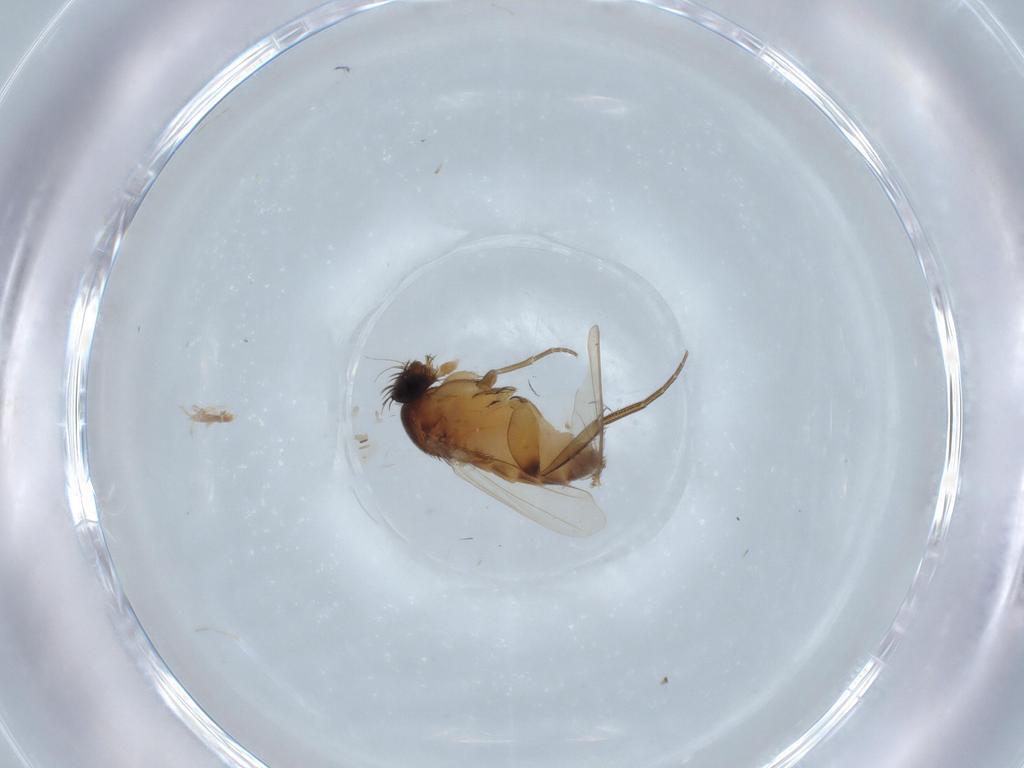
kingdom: Animalia
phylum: Arthropoda
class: Insecta
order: Diptera
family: Phoridae
